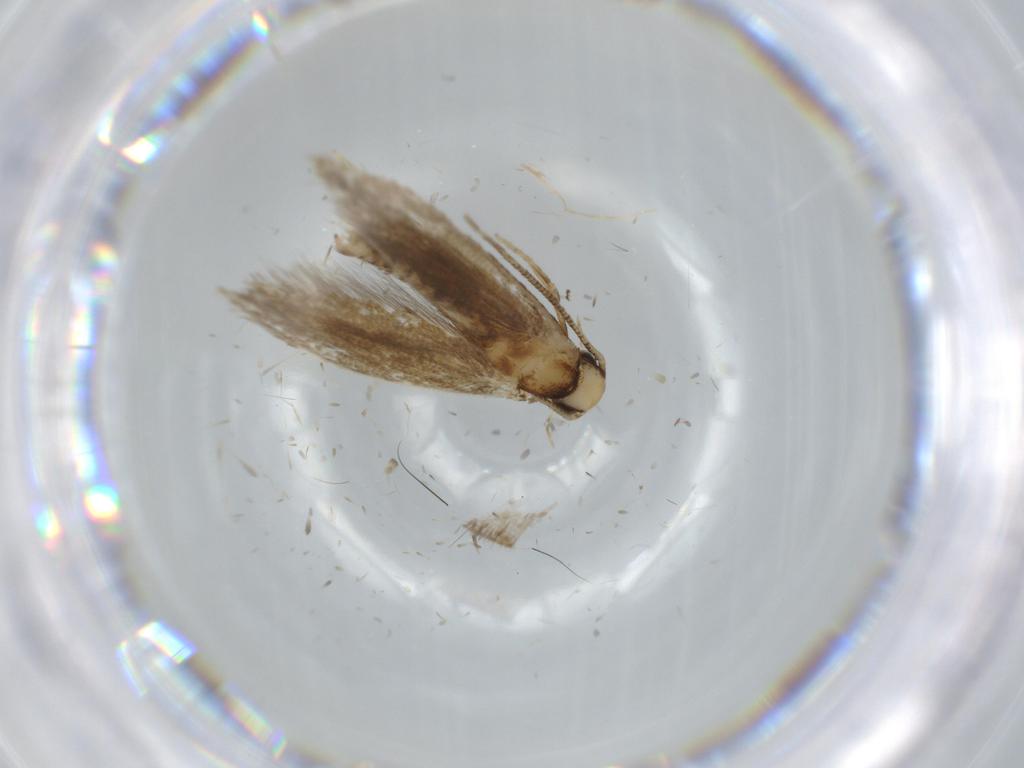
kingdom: Animalia
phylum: Arthropoda
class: Insecta
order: Lepidoptera
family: Tineidae
